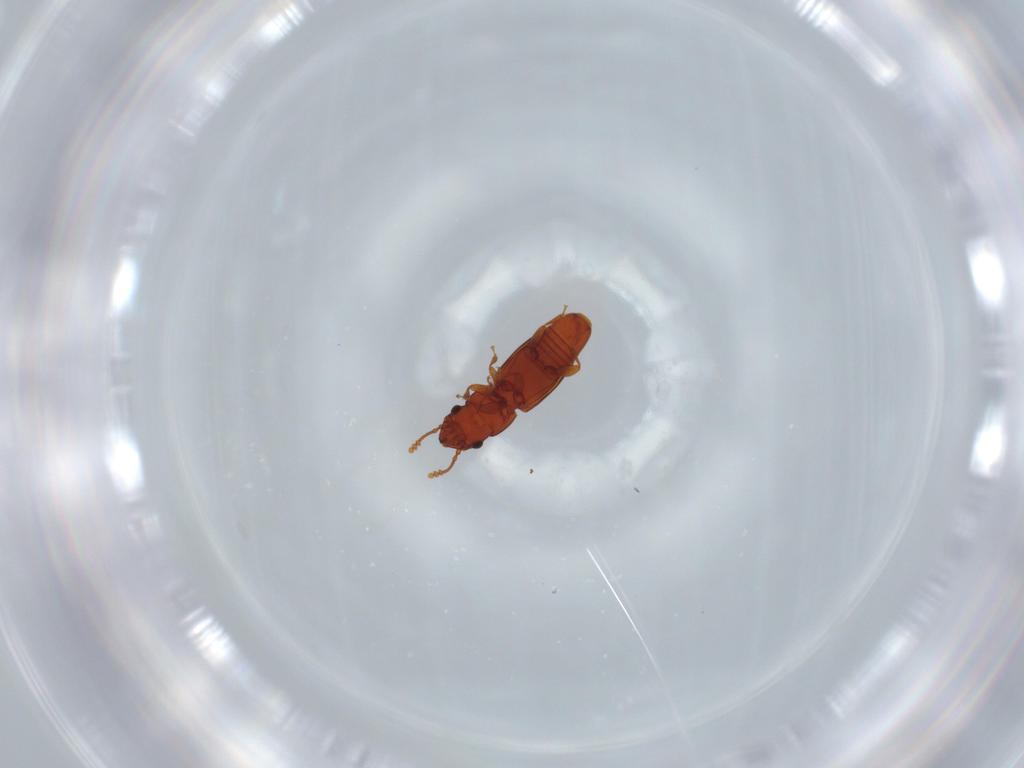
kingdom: Animalia
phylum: Arthropoda
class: Insecta
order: Coleoptera
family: Smicripidae
